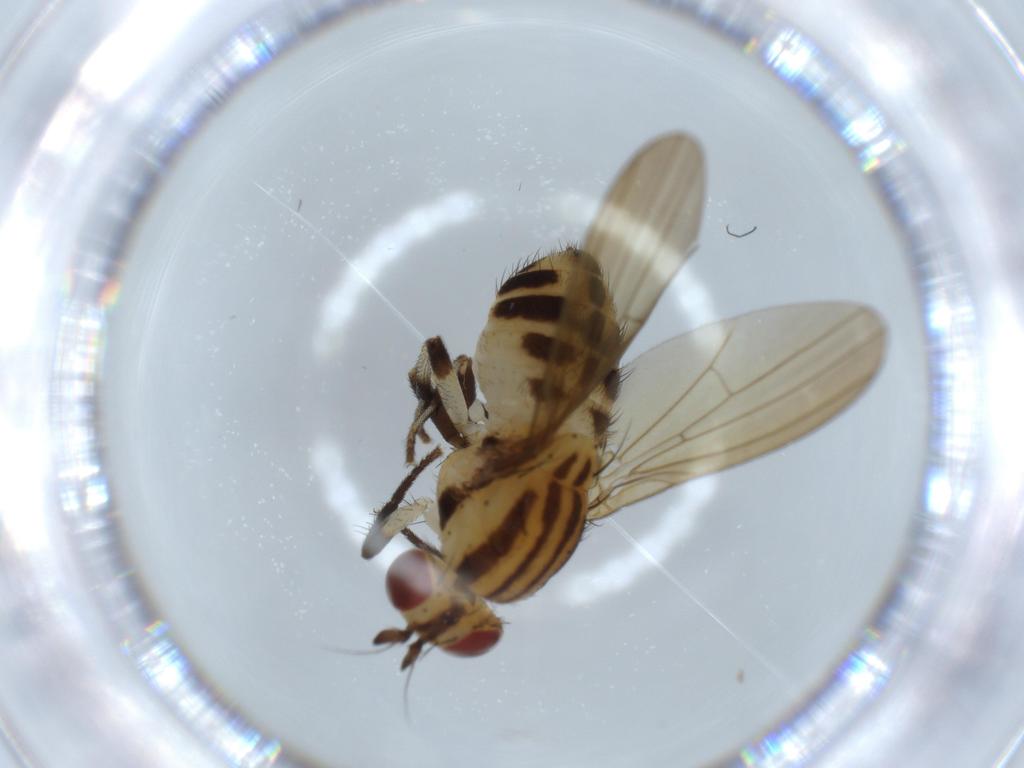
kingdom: Animalia
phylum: Arthropoda
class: Insecta
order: Diptera
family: Lauxaniidae
